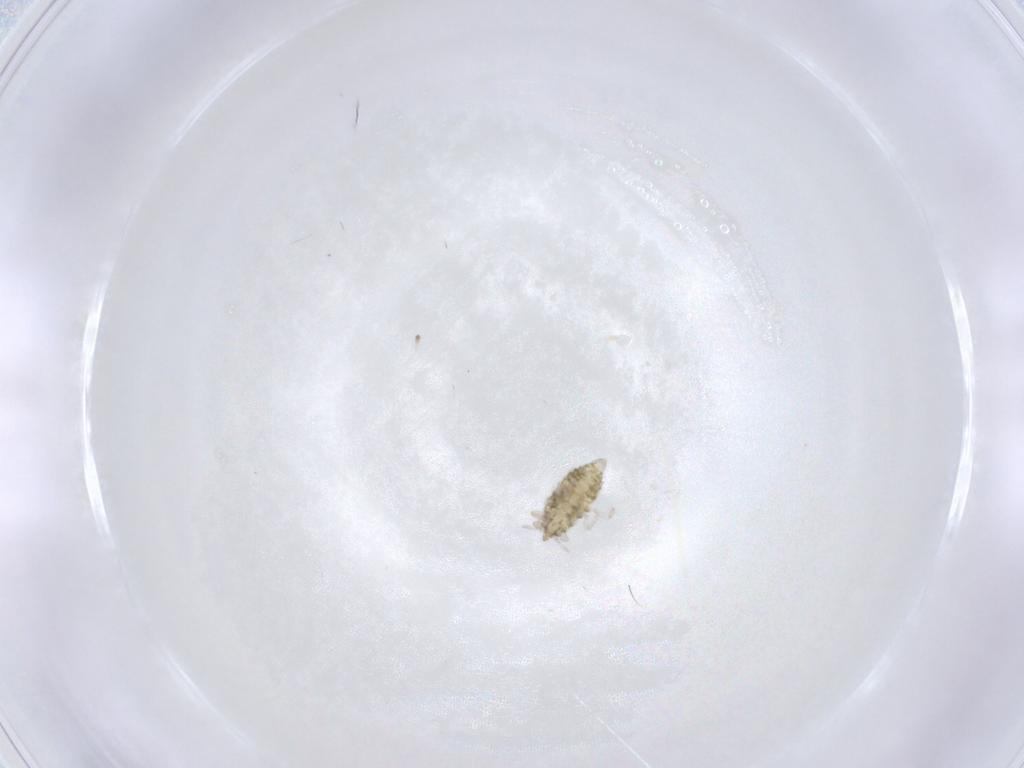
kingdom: Animalia
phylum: Arthropoda
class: Insecta
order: Neuroptera
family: Coniopterygidae
